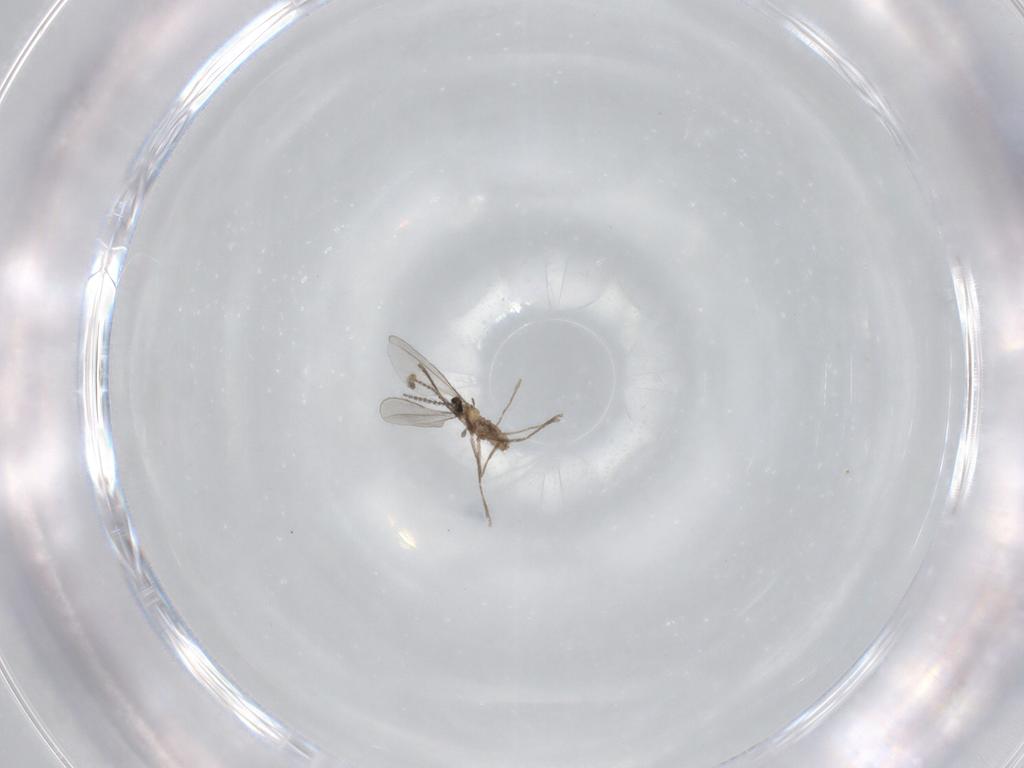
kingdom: Animalia
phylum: Arthropoda
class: Insecta
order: Diptera
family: Cecidomyiidae
